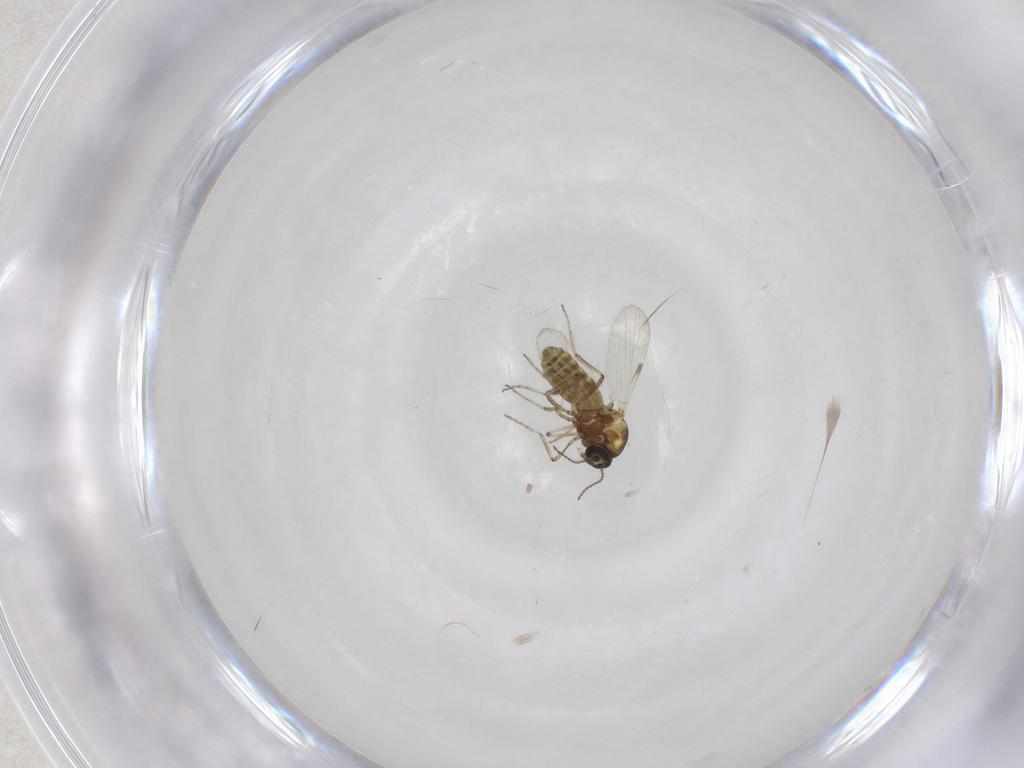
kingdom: Animalia
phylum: Arthropoda
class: Insecta
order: Diptera
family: Ceratopogonidae
